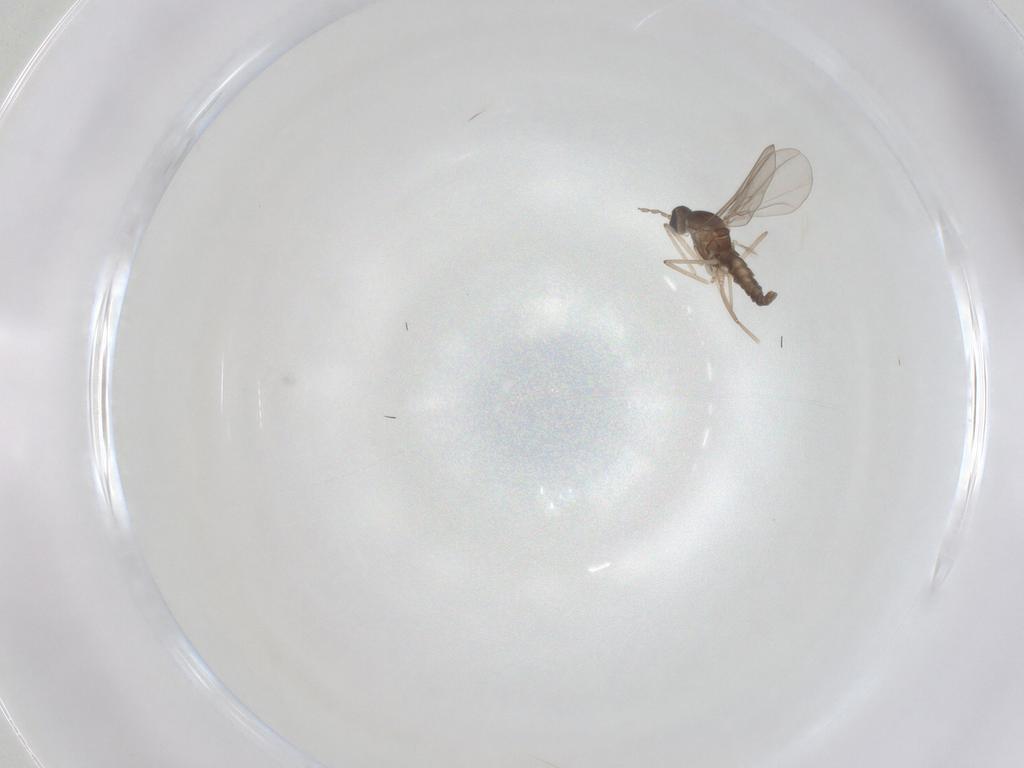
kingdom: Animalia
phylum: Arthropoda
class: Insecta
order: Diptera
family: Cecidomyiidae
